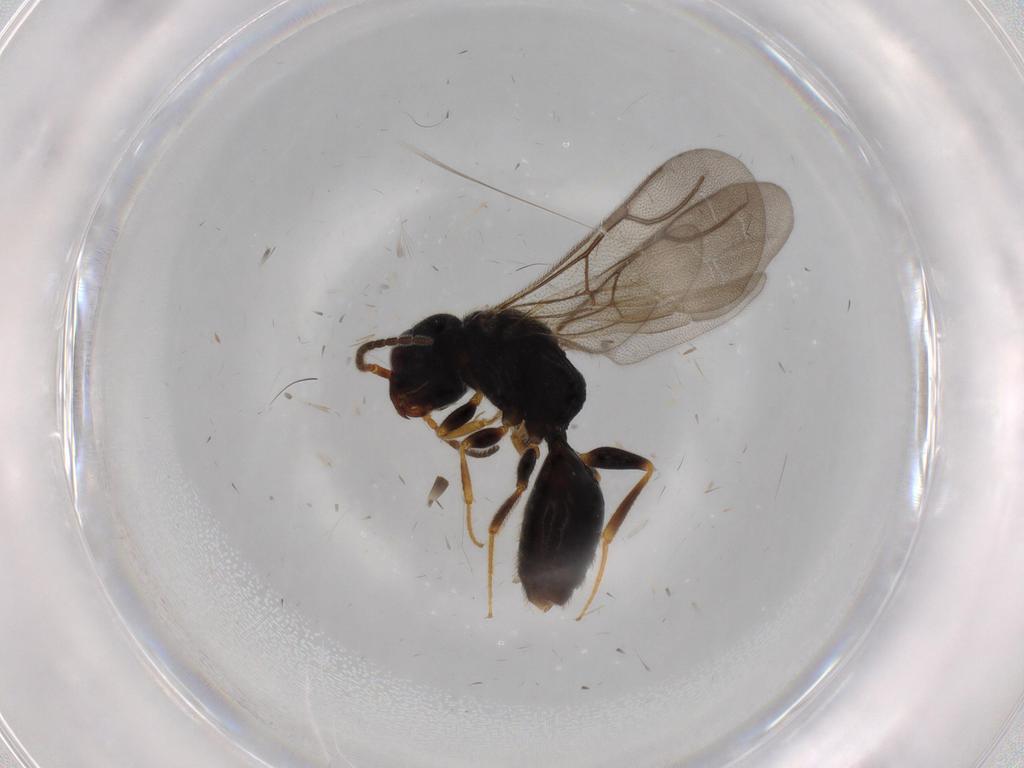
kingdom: Animalia
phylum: Arthropoda
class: Insecta
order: Hymenoptera
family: Bethylidae
